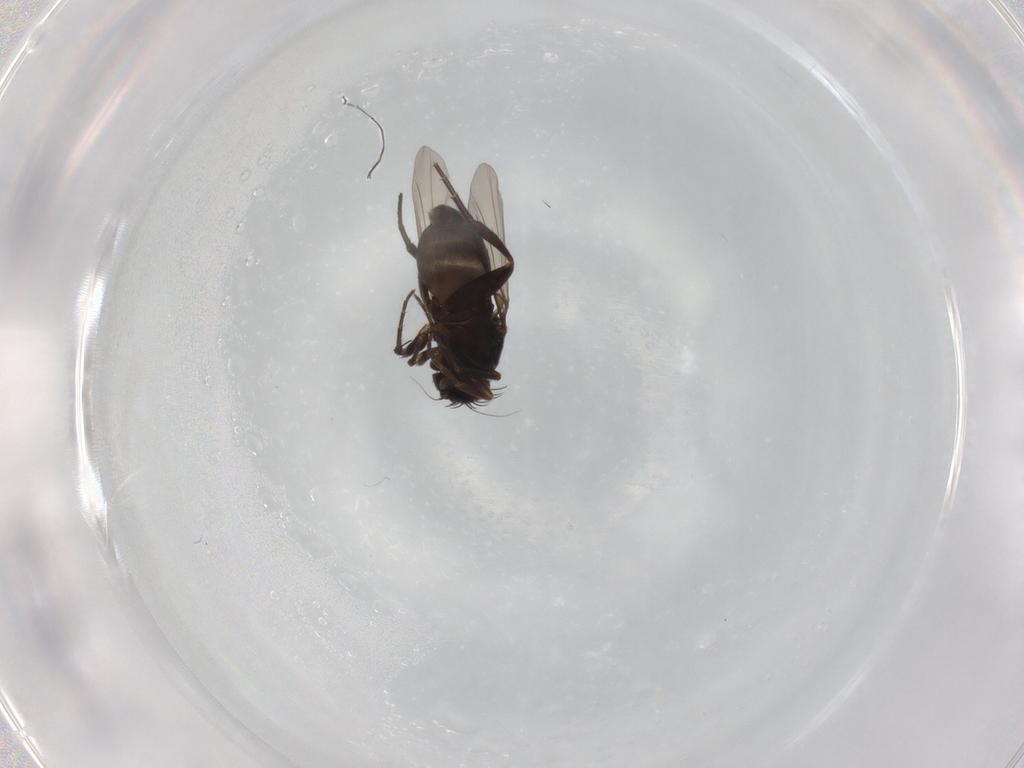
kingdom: Animalia
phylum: Arthropoda
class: Insecta
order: Diptera
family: Phoridae
